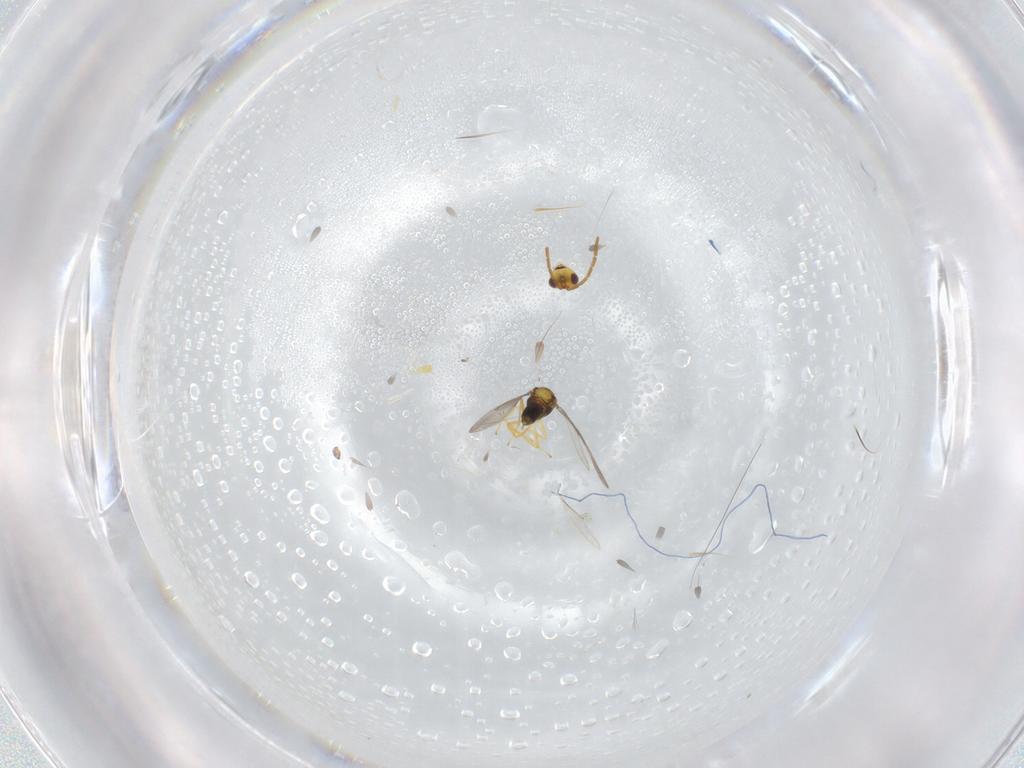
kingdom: Animalia
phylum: Arthropoda
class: Insecta
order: Hymenoptera
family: Aphelinidae
